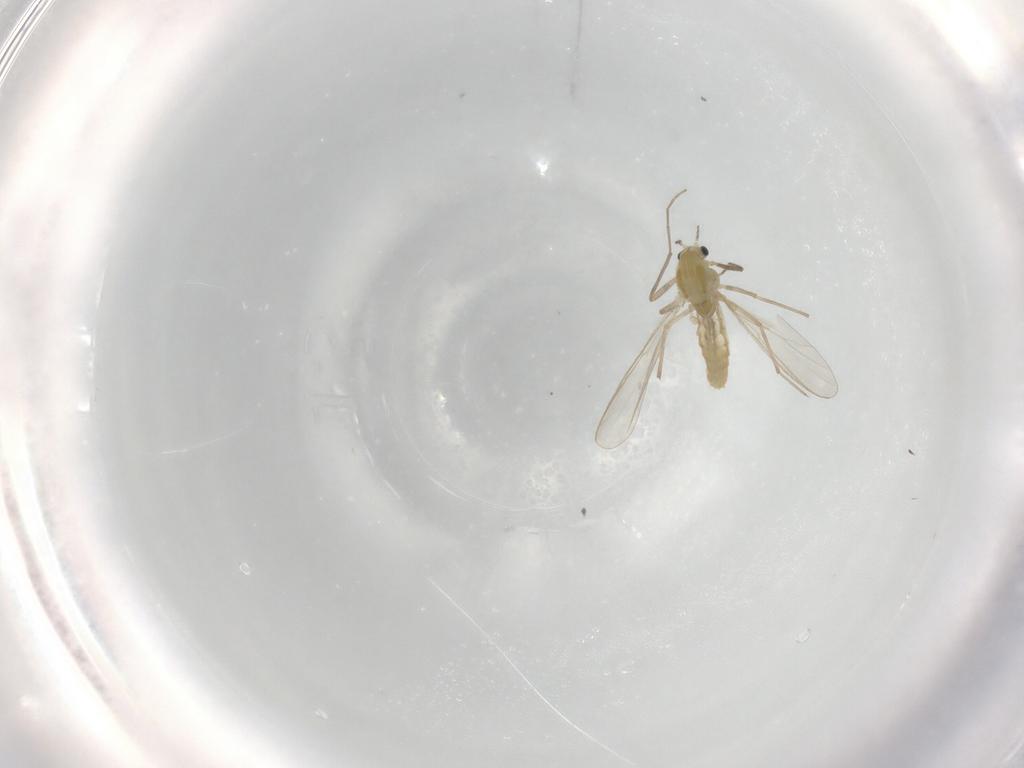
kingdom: Animalia
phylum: Arthropoda
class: Insecta
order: Diptera
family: Chironomidae
